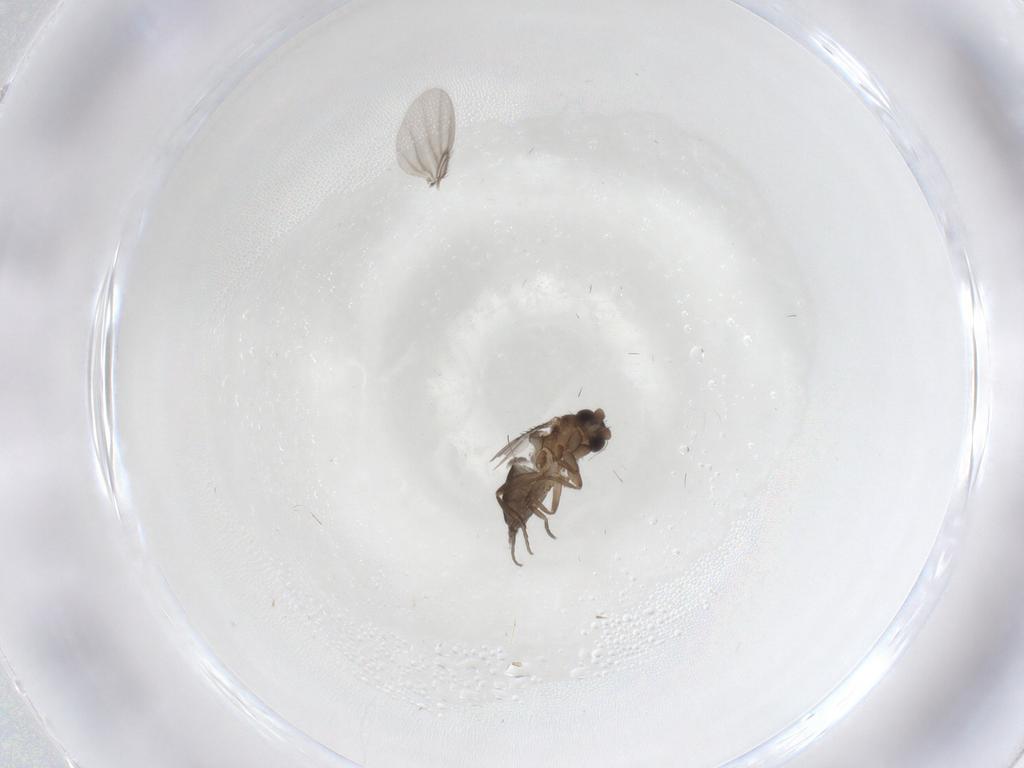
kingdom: Animalia
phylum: Arthropoda
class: Insecta
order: Diptera
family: Phoridae
